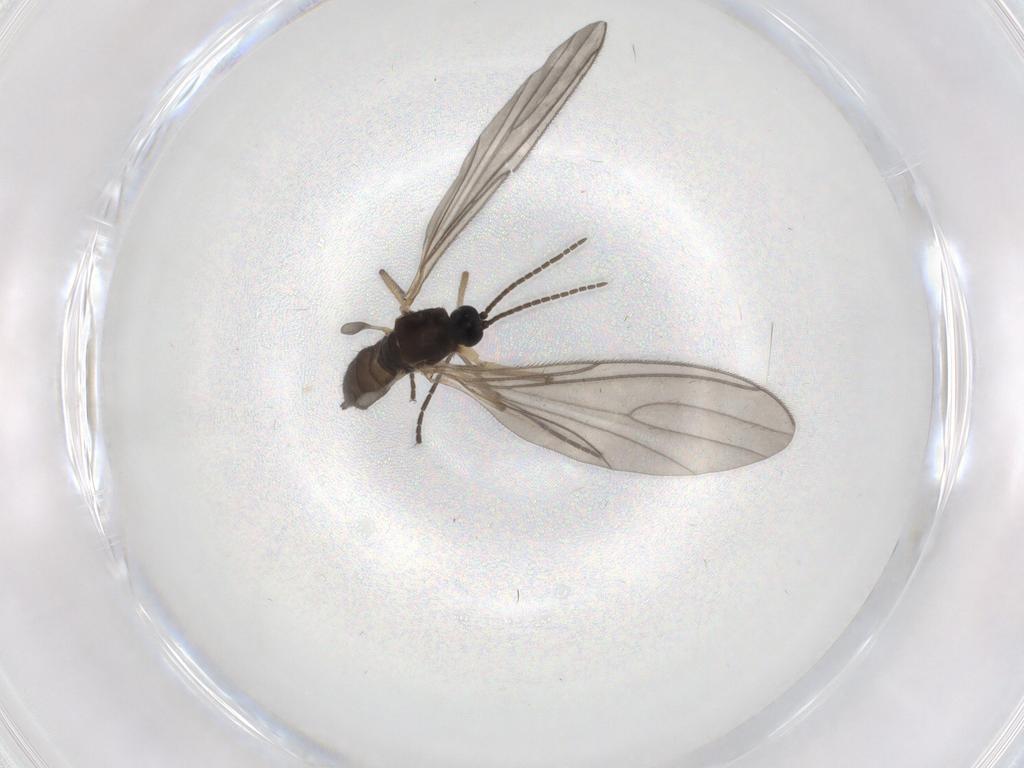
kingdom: Animalia
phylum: Arthropoda
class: Insecta
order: Diptera
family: Sciaridae
